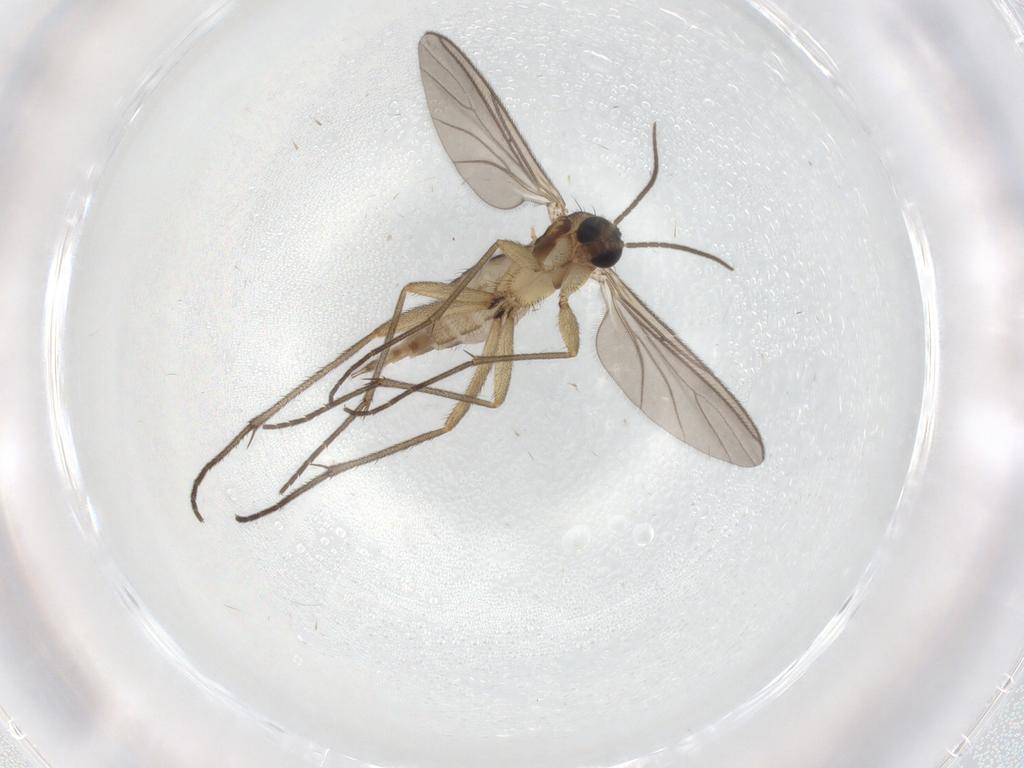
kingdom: Animalia
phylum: Arthropoda
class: Insecta
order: Diptera
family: Sciaridae
